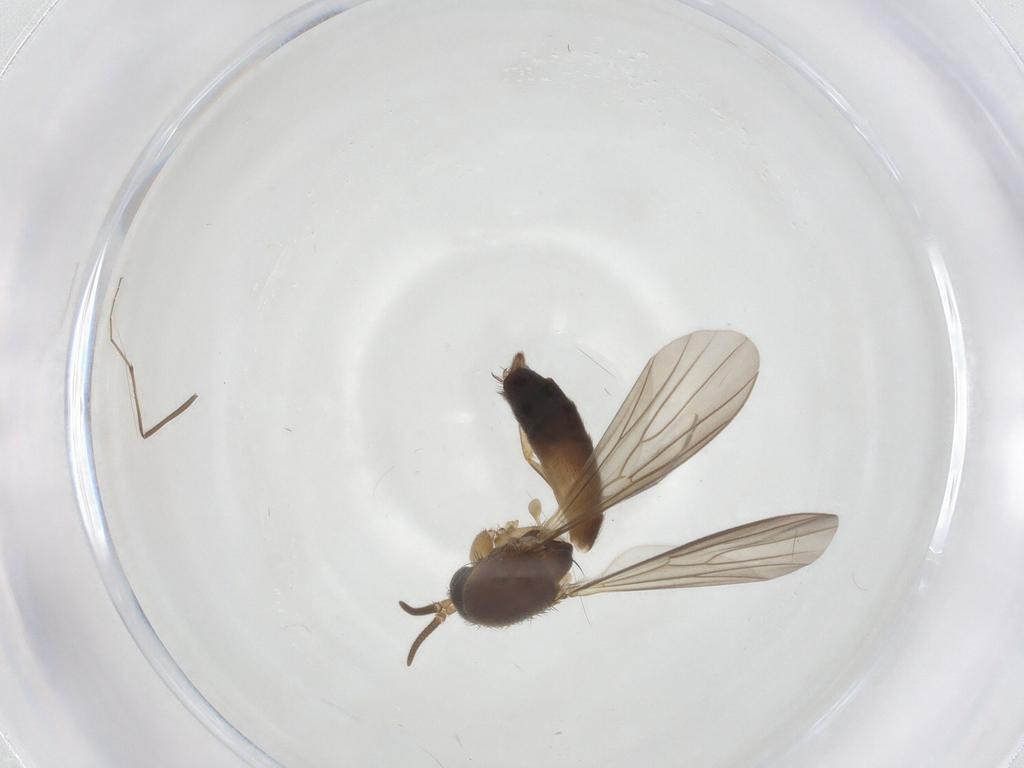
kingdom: Animalia
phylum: Arthropoda
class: Insecta
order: Diptera
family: Mycetophilidae
